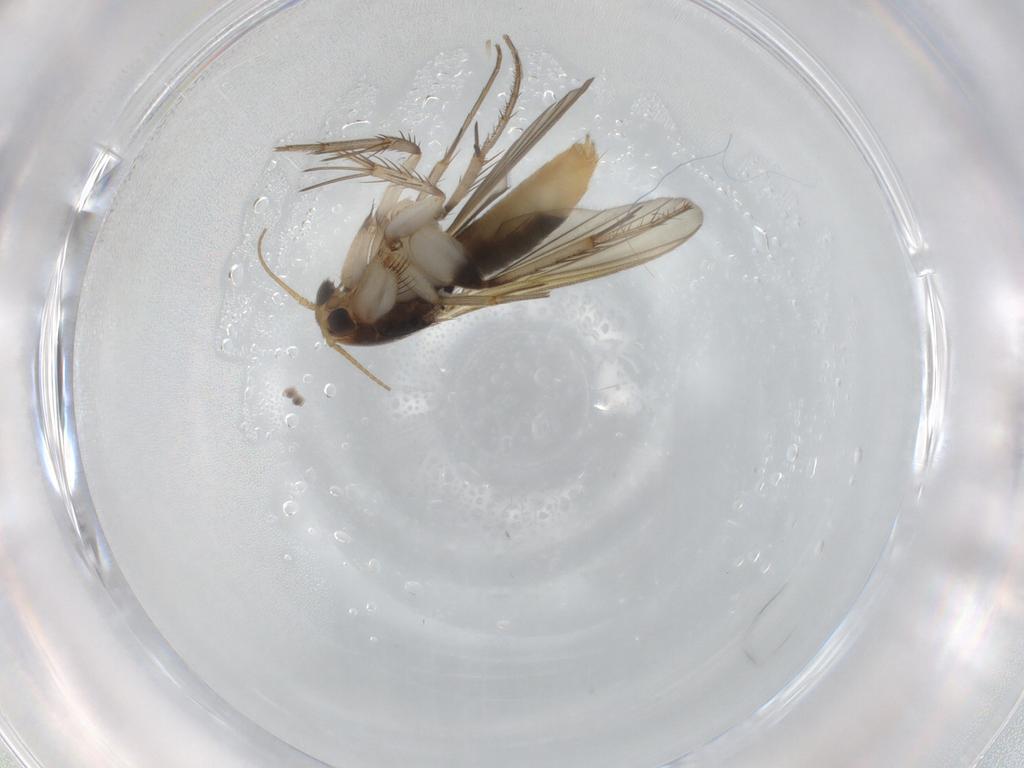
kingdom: Animalia
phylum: Arthropoda
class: Insecta
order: Diptera
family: Mycetophilidae
